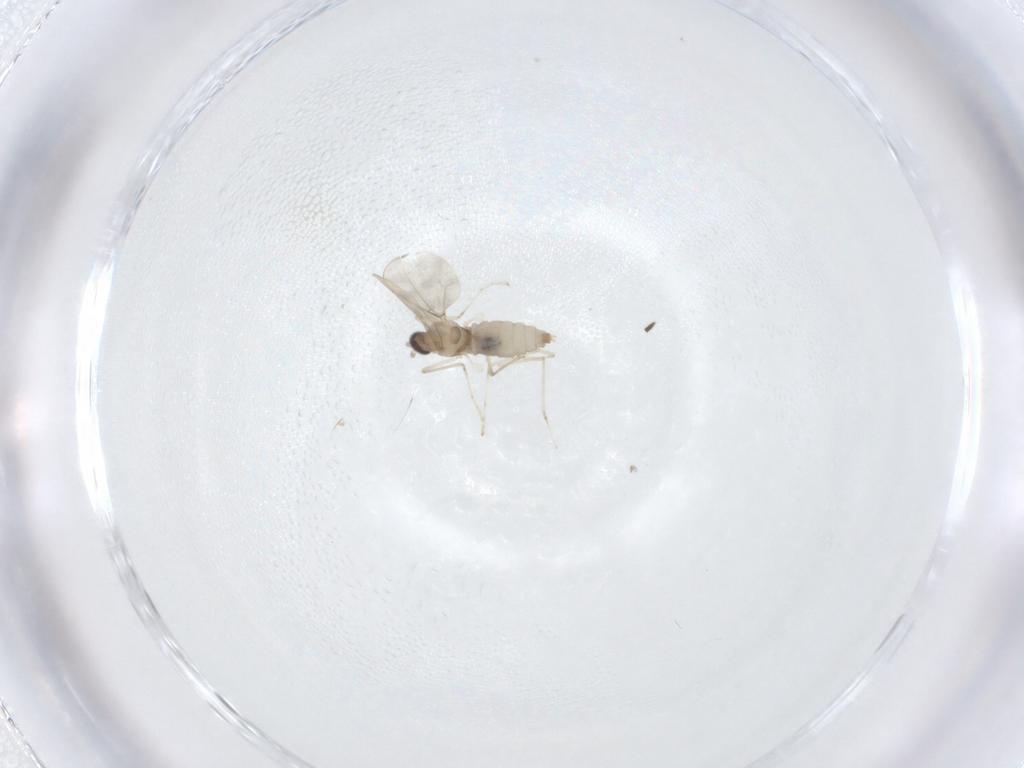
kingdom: Animalia
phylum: Arthropoda
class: Insecta
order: Diptera
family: Cecidomyiidae
